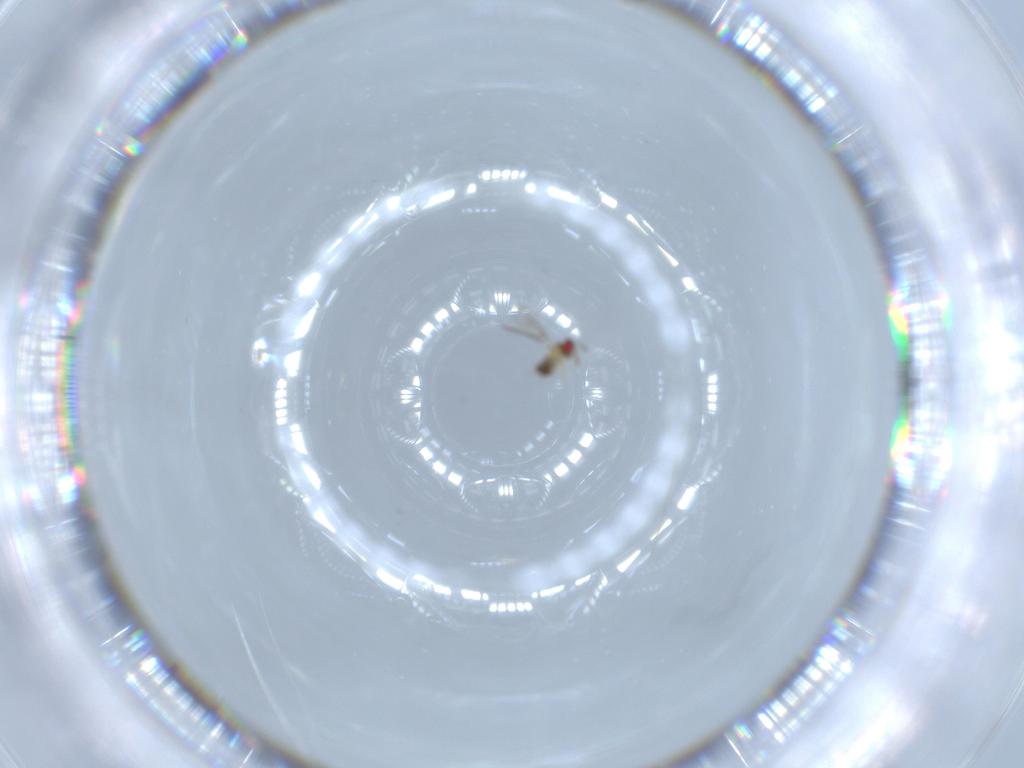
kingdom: Animalia
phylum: Arthropoda
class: Insecta
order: Hymenoptera
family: Aphelinidae
